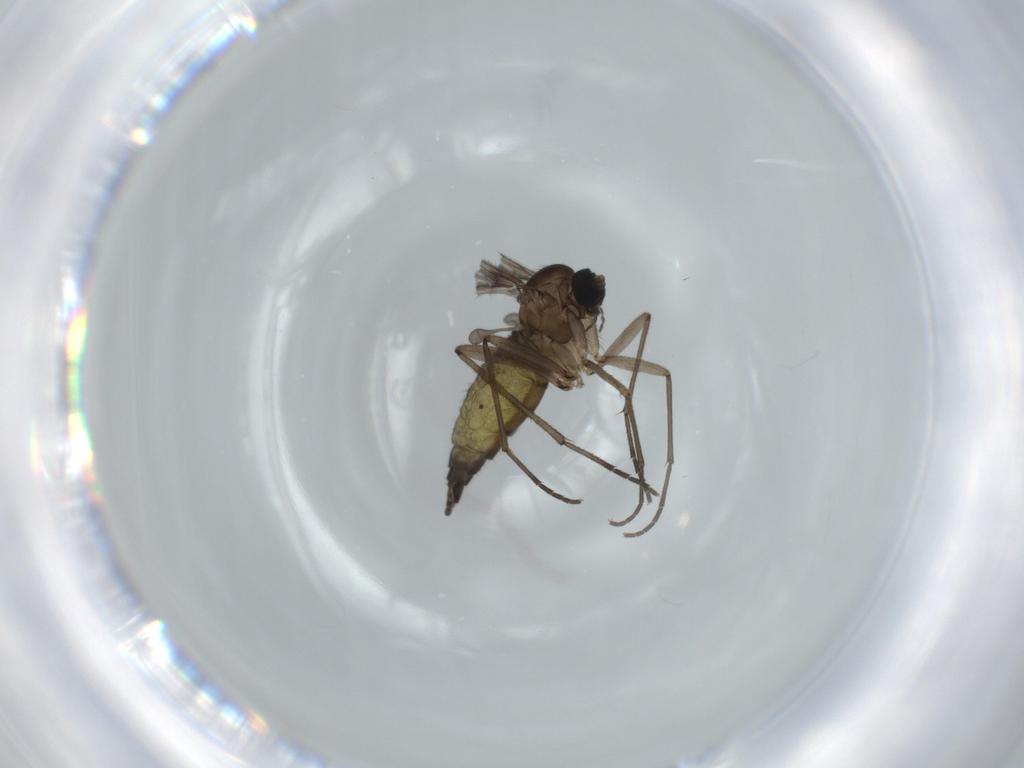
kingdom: Animalia
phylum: Arthropoda
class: Insecta
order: Diptera
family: Sciaridae
